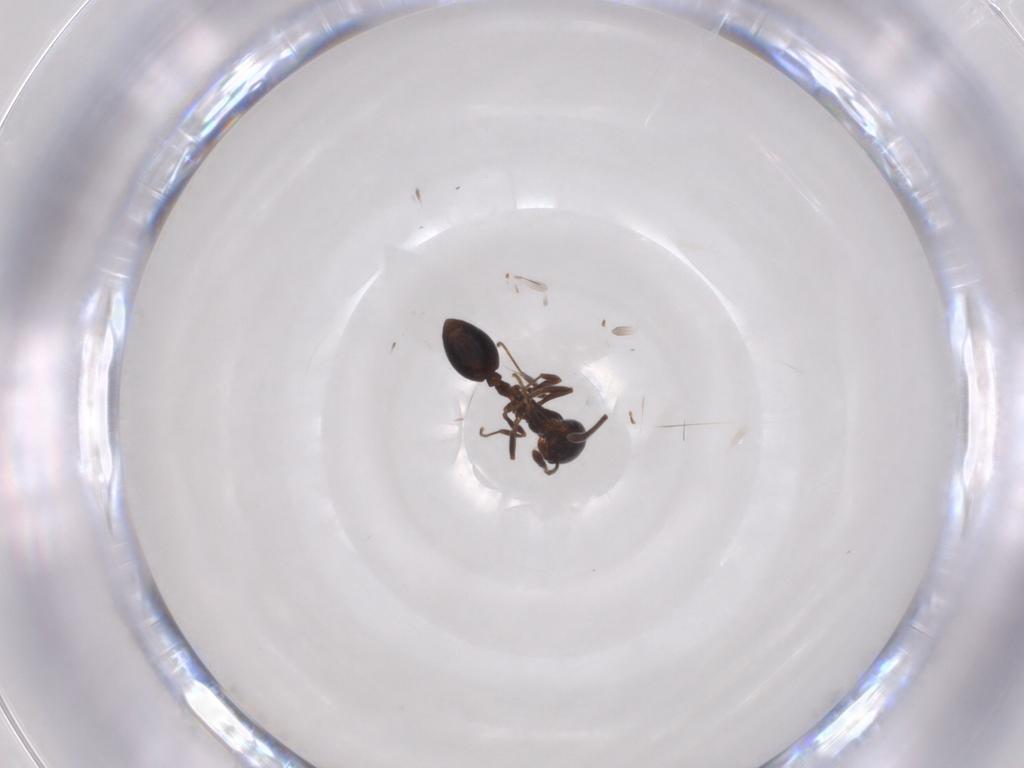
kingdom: Animalia
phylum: Arthropoda
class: Insecta
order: Hymenoptera
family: Formicidae
